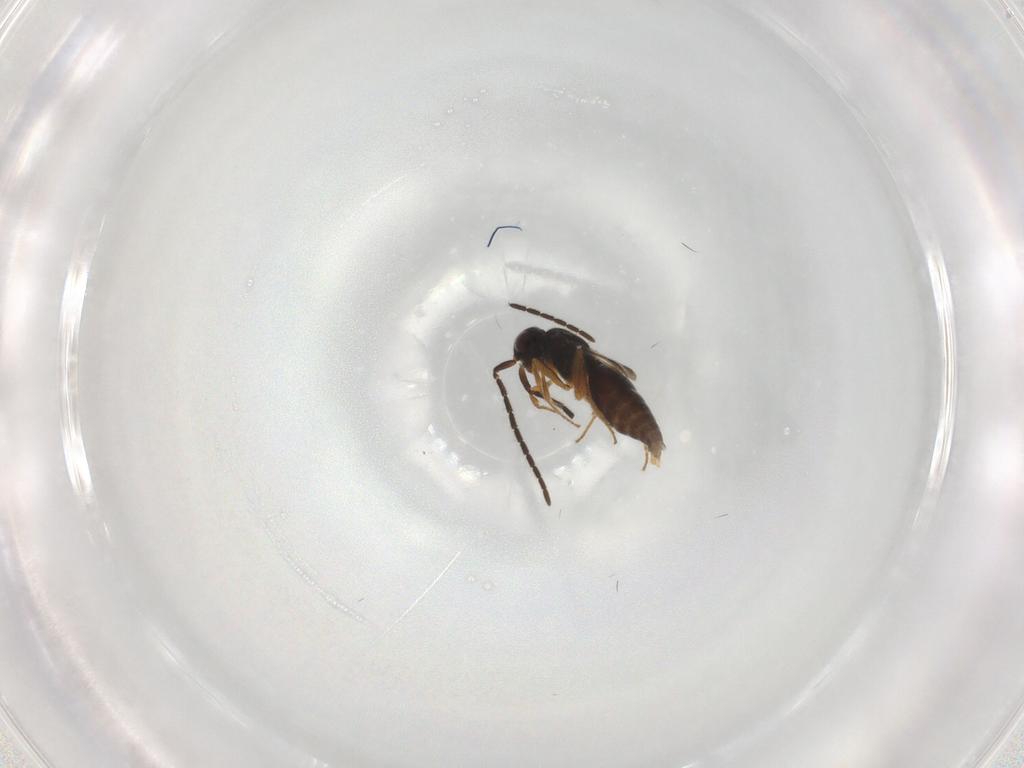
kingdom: Animalia
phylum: Arthropoda
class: Insecta
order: Hymenoptera
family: Megaspilidae
